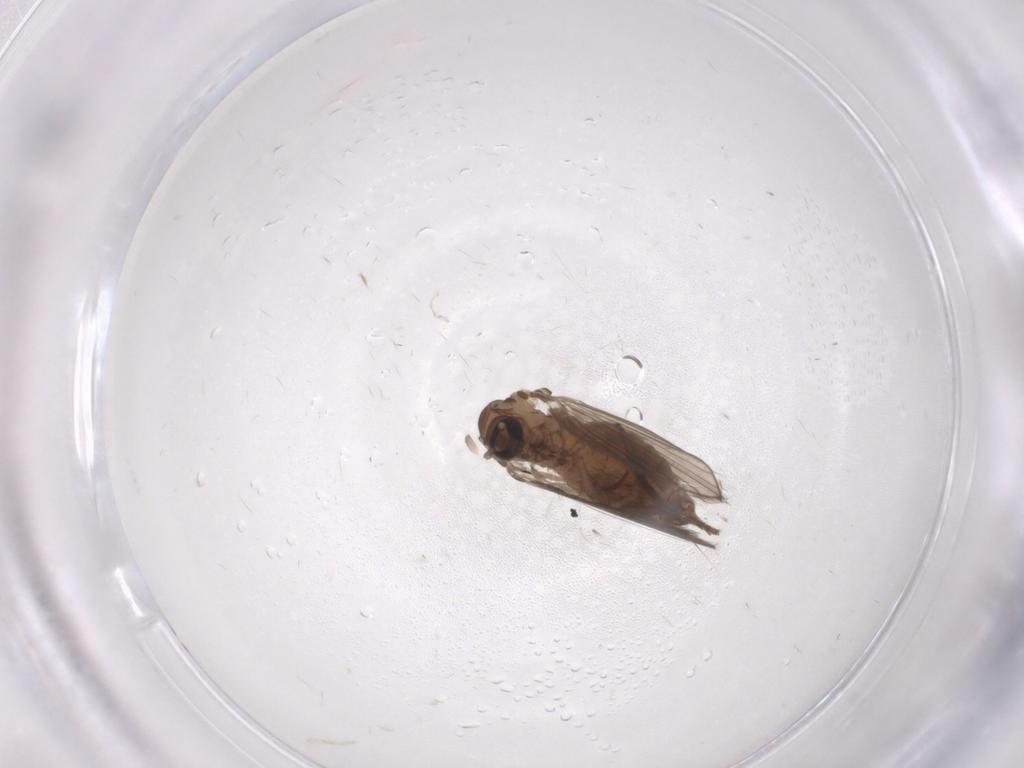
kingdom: Animalia
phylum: Arthropoda
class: Insecta
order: Diptera
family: Psychodidae
